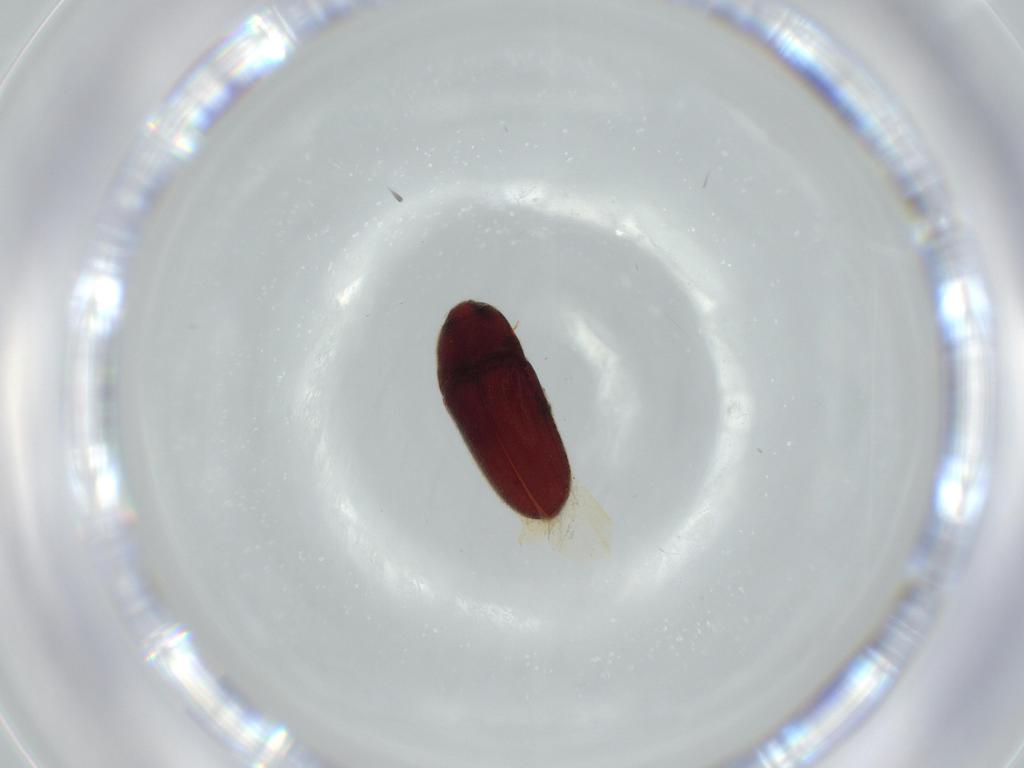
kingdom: Animalia
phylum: Arthropoda
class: Insecta
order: Coleoptera
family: Throscidae
